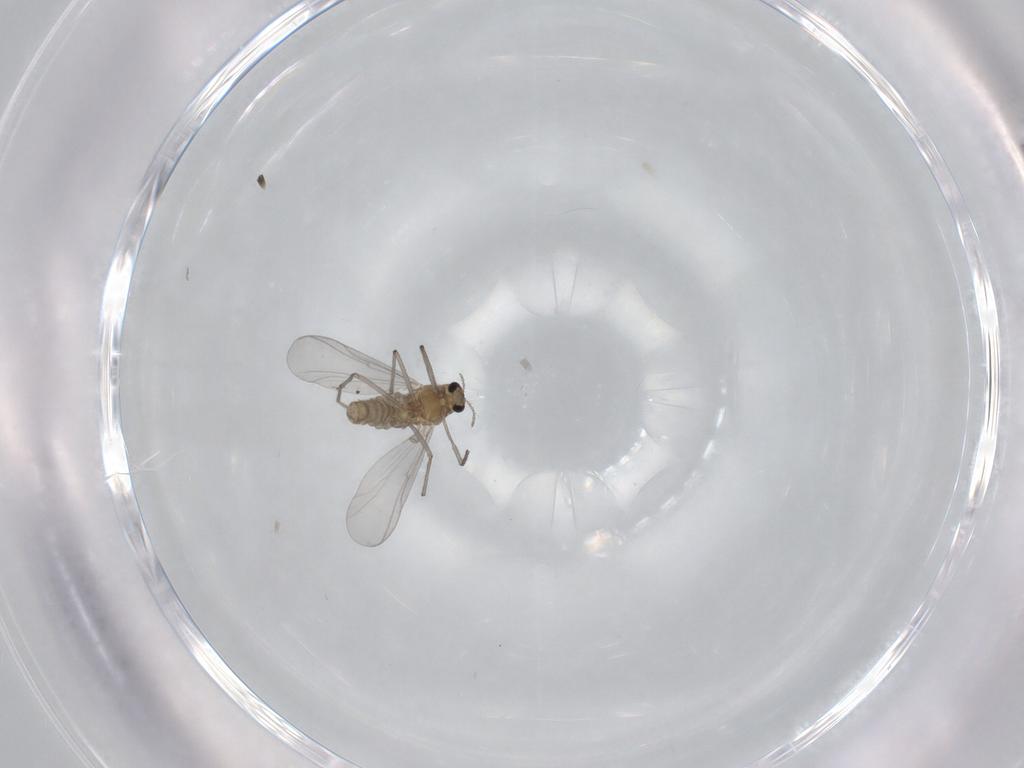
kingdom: Animalia
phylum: Arthropoda
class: Insecta
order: Diptera
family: Chironomidae
